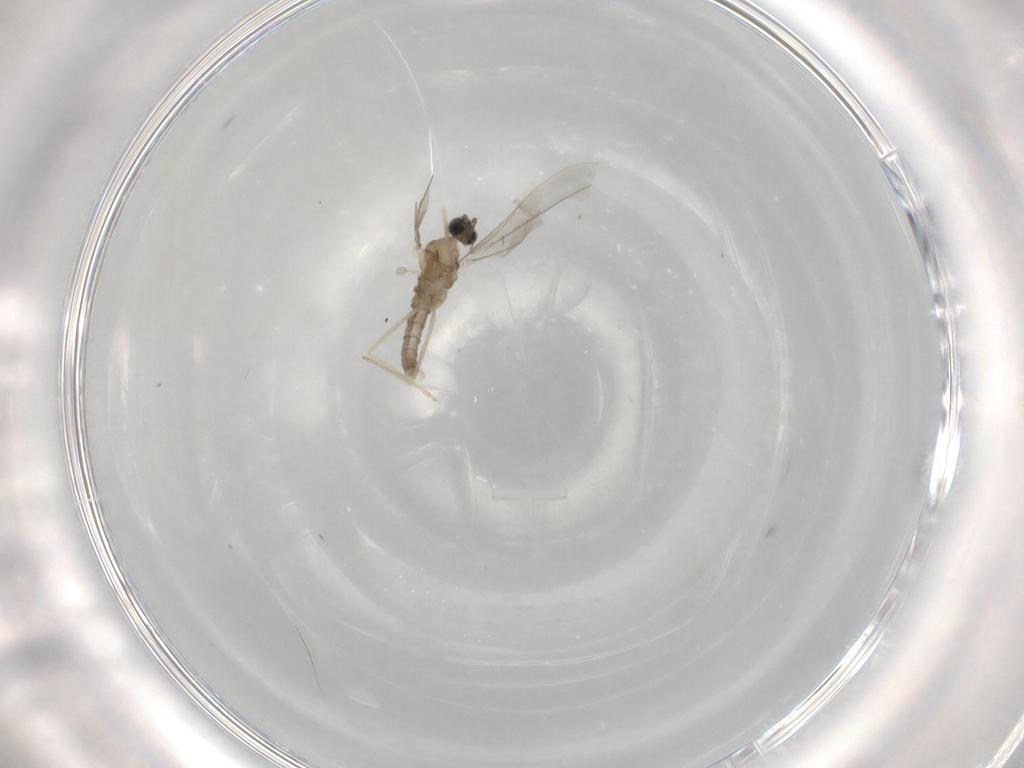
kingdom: Animalia
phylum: Arthropoda
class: Insecta
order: Diptera
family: Cecidomyiidae
